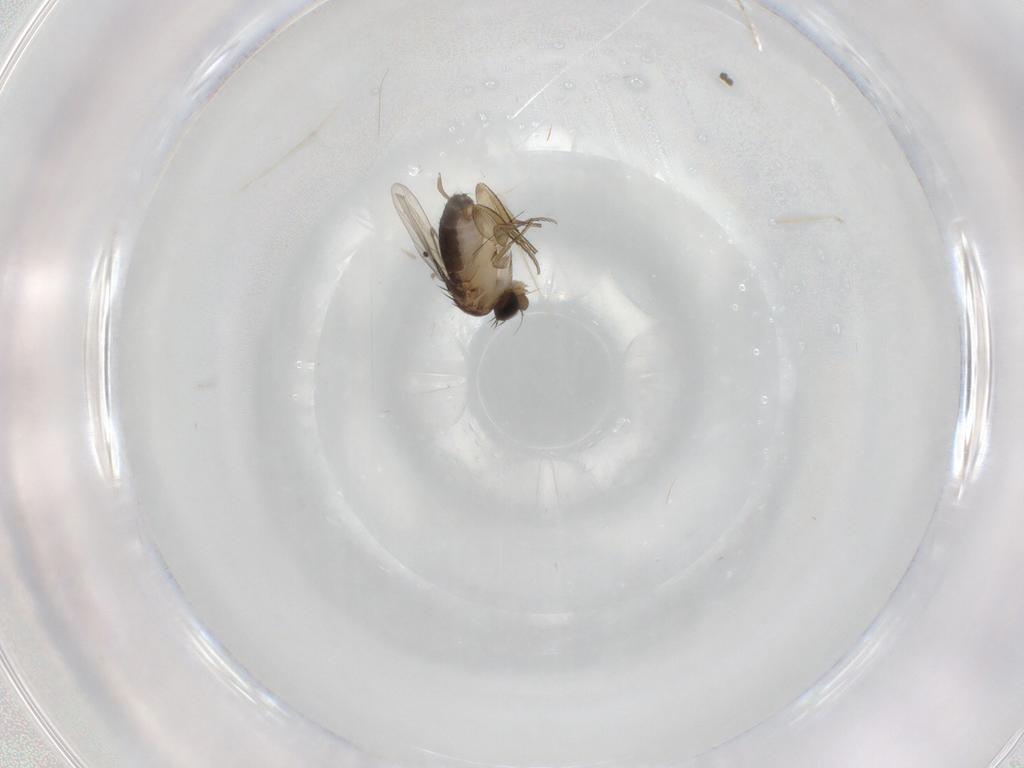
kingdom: Animalia
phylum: Arthropoda
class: Insecta
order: Diptera
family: Phoridae
